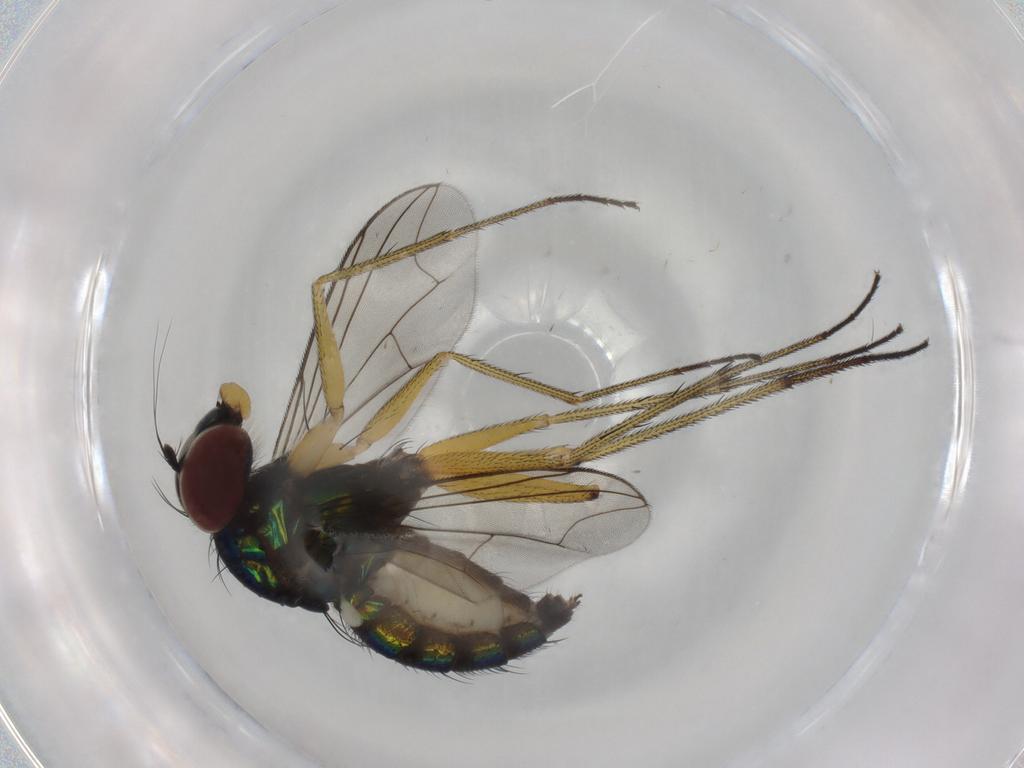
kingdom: Animalia
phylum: Arthropoda
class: Insecta
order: Diptera
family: Dolichopodidae
